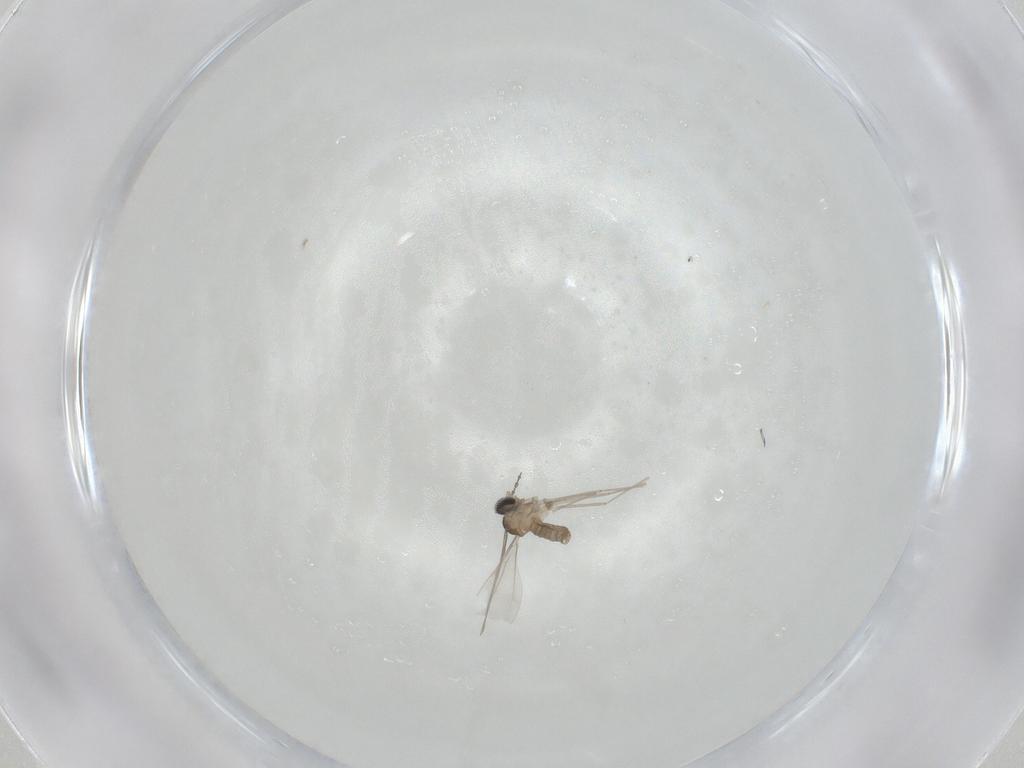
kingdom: Animalia
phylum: Arthropoda
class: Insecta
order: Diptera
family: Cecidomyiidae
